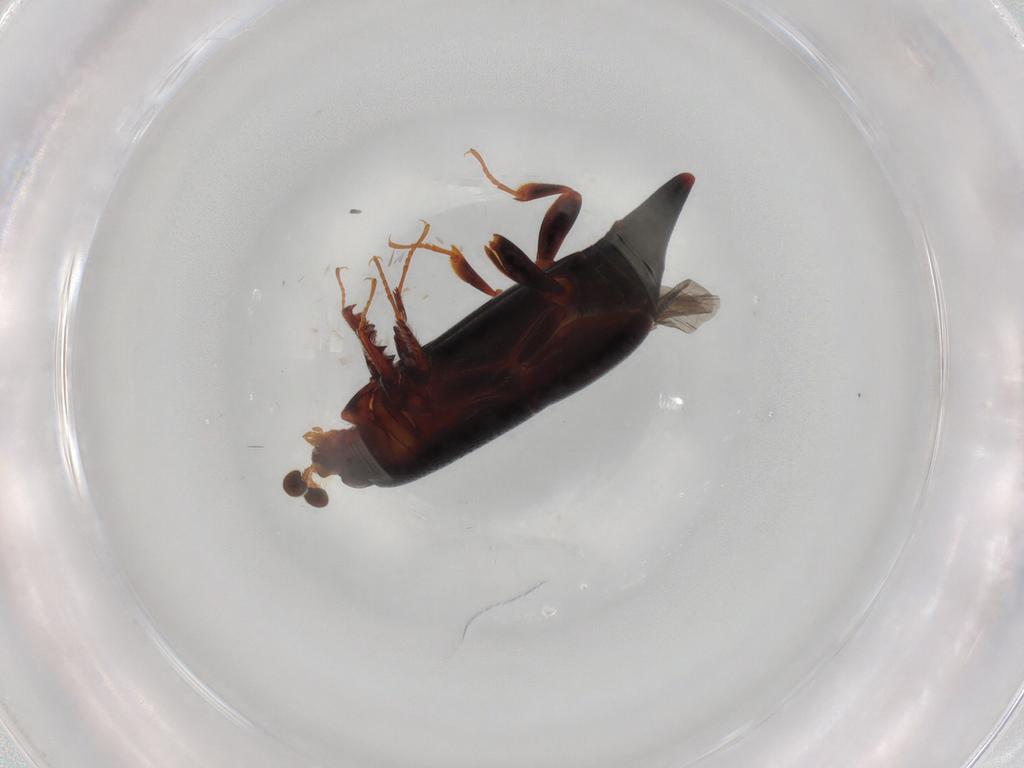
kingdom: Animalia
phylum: Arthropoda
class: Insecta
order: Coleoptera
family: Histeridae
